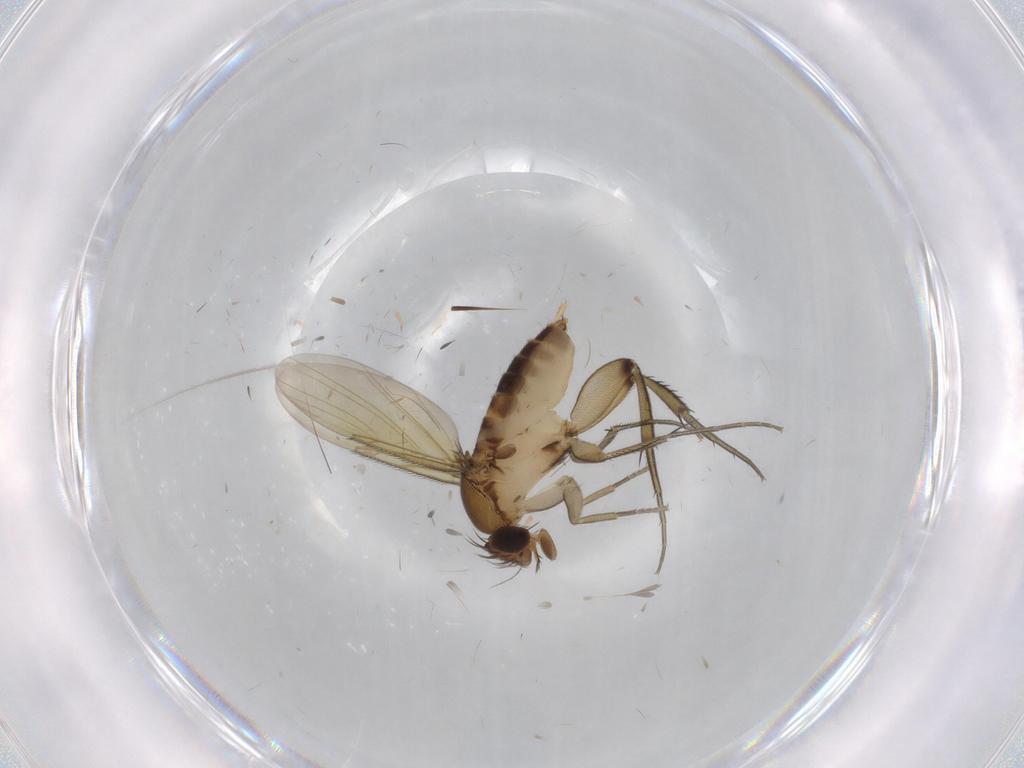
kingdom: Animalia
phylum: Arthropoda
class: Insecta
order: Diptera
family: Phoridae
